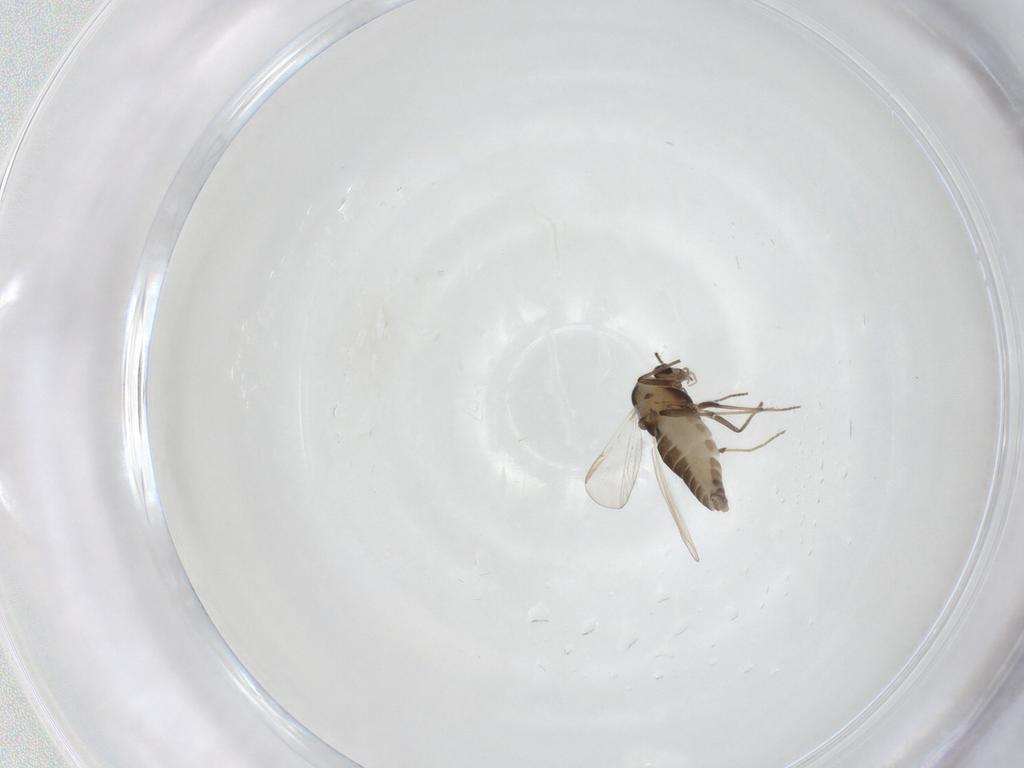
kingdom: Animalia
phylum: Arthropoda
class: Insecta
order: Diptera
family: Chironomidae
